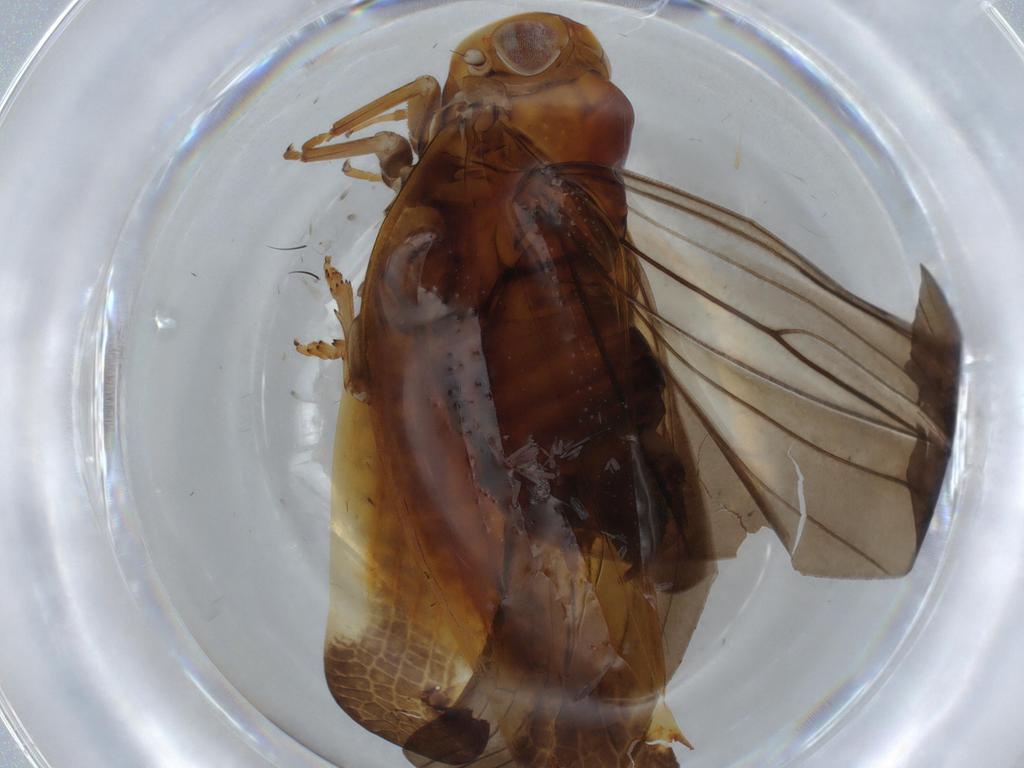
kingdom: Animalia
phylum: Arthropoda
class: Insecta
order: Hemiptera
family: Nogodinidae
